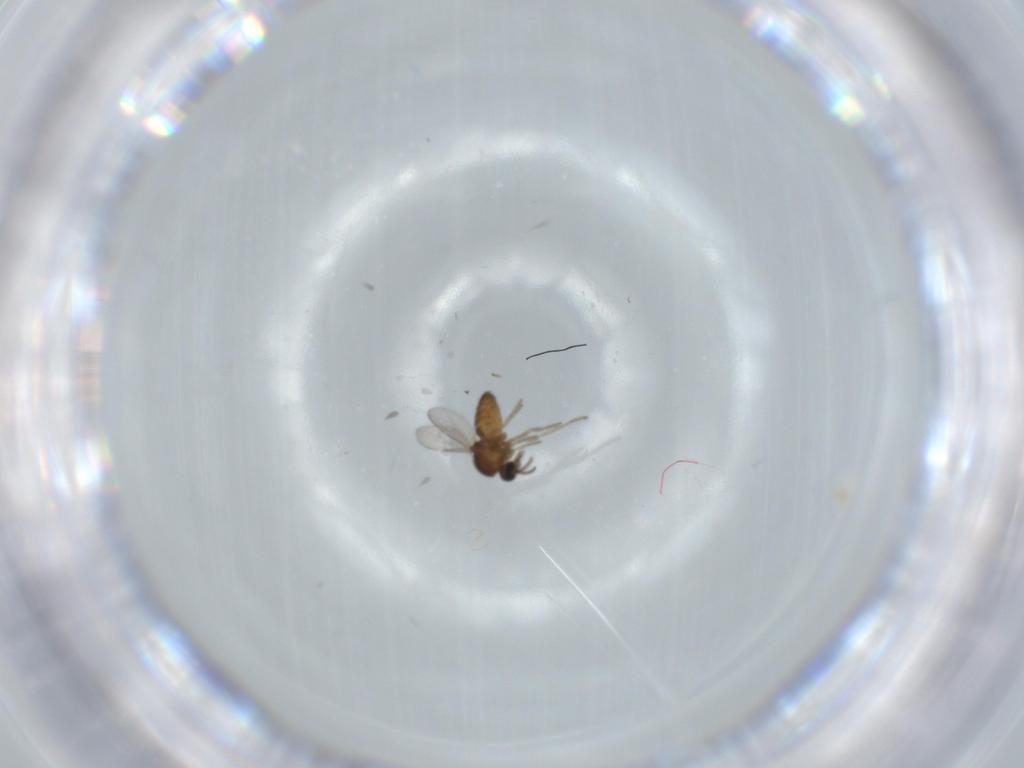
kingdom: Animalia
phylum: Arthropoda
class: Insecta
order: Diptera
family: Ceratopogonidae
